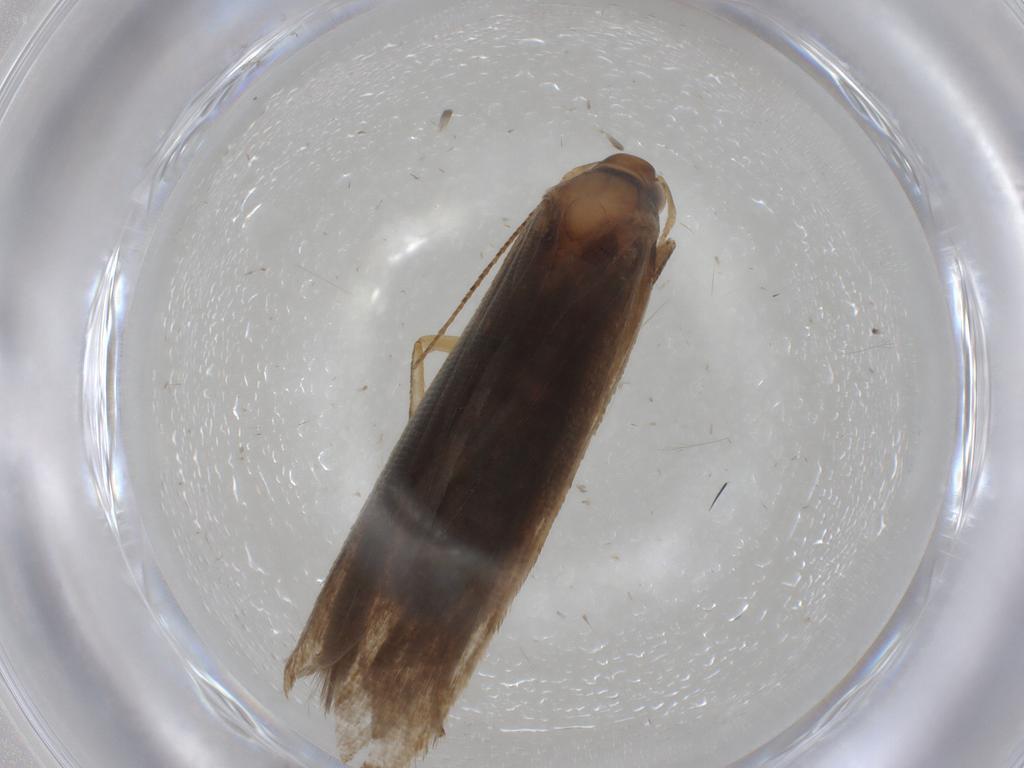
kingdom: Animalia
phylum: Arthropoda
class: Insecta
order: Lepidoptera
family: Gelechiidae
